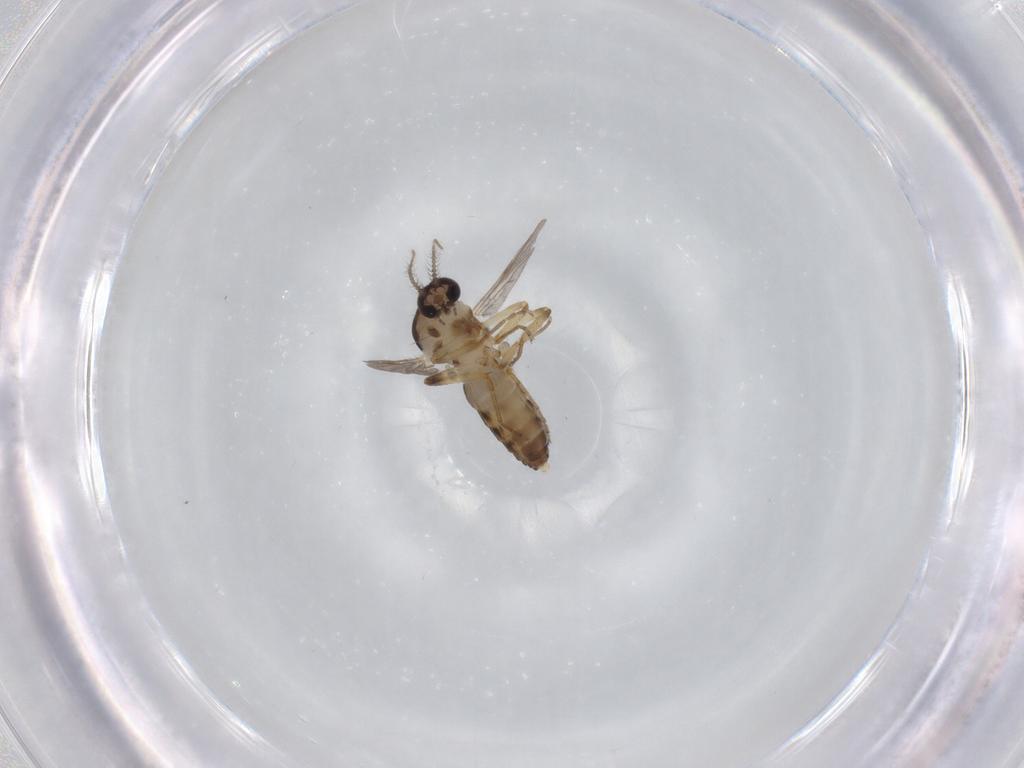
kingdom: Animalia
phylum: Arthropoda
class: Insecta
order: Diptera
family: Ceratopogonidae
